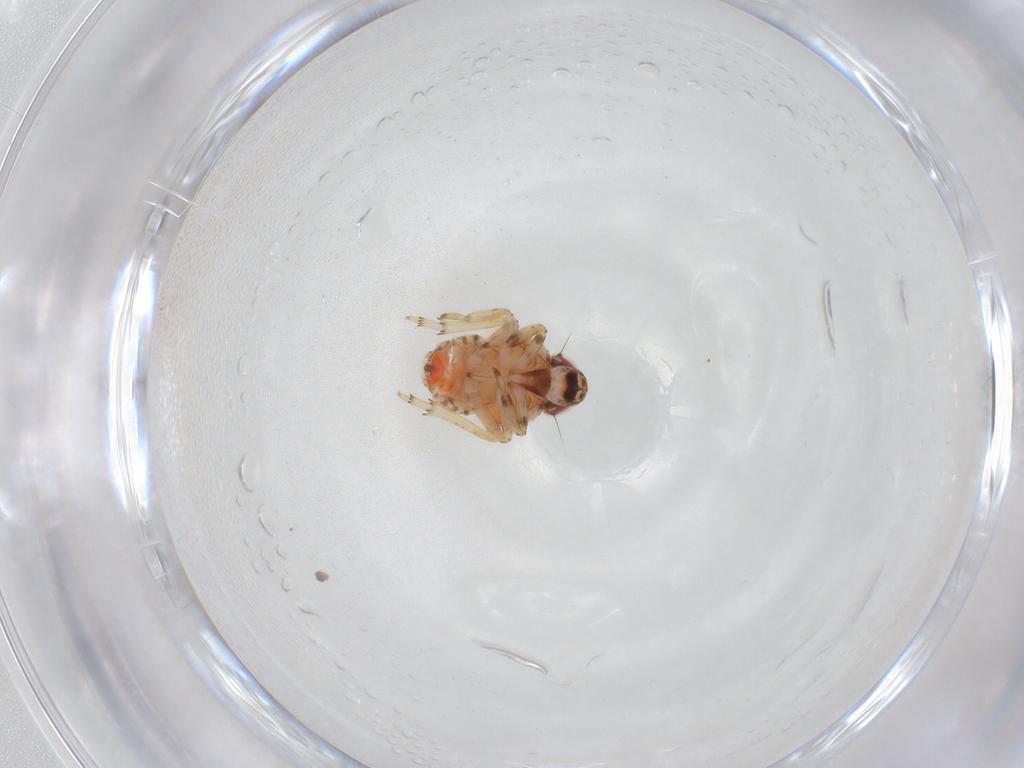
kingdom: Animalia
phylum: Arthropoda
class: Insecta
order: Hemiptera
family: Issidae
